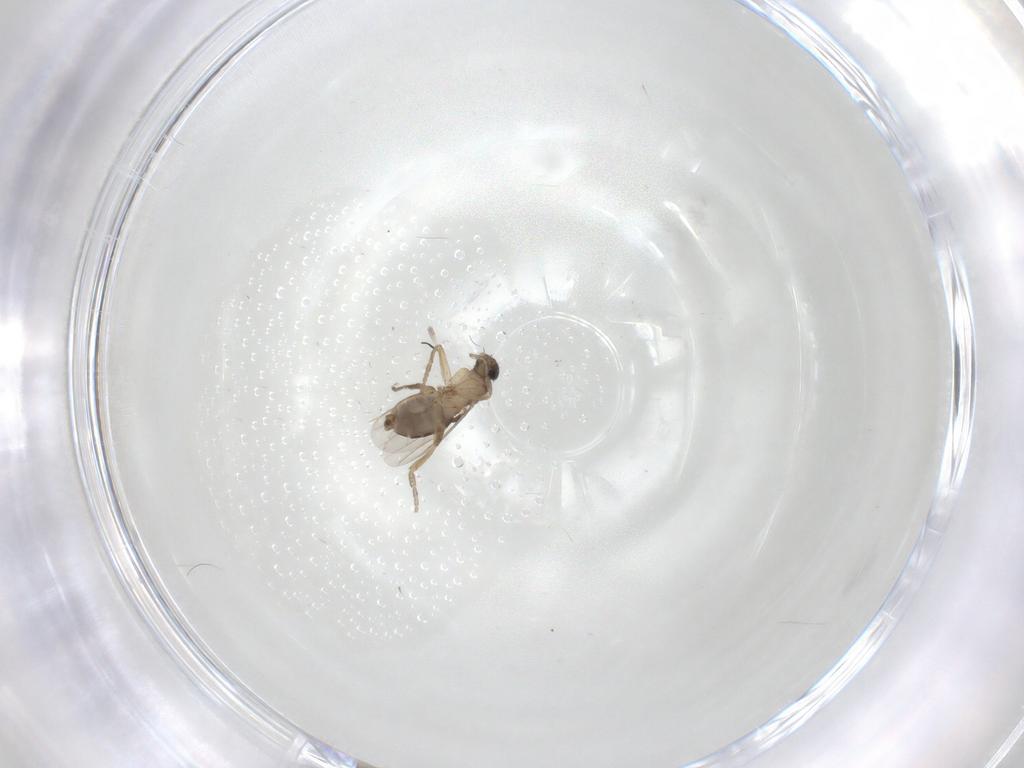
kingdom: Animalia
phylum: Arthropoda
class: Insecta
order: Diptera
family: Phoridae
